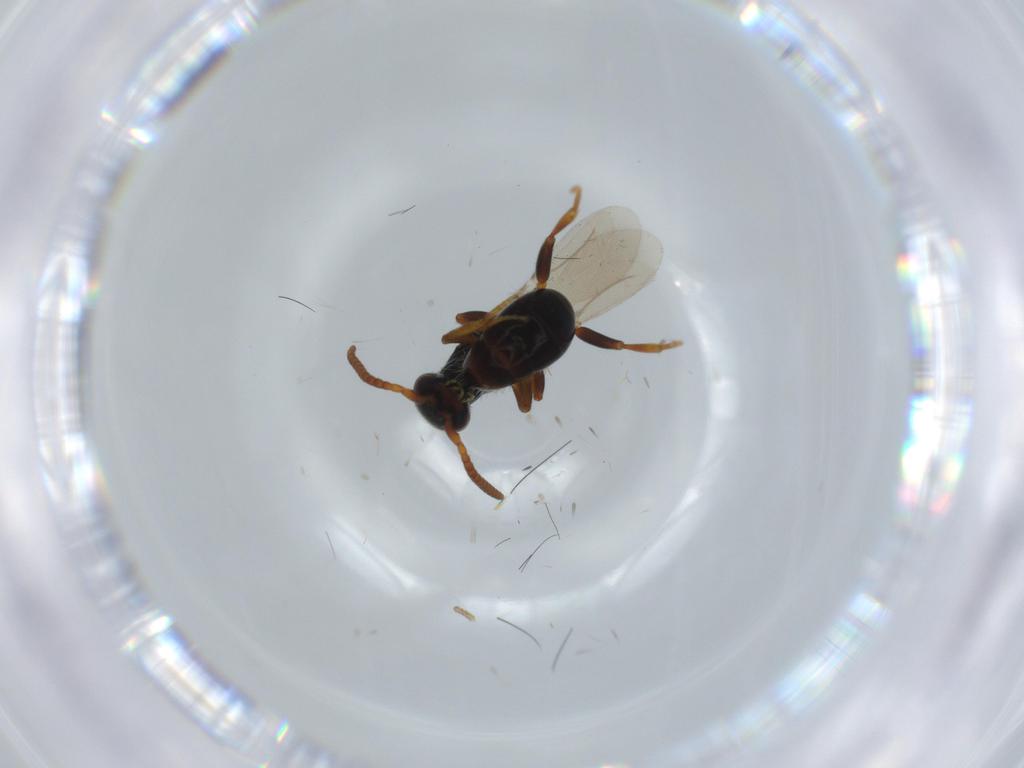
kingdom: Animalia
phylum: Arthropoda
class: Insecta
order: Hymenoptera
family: Bethylidae
